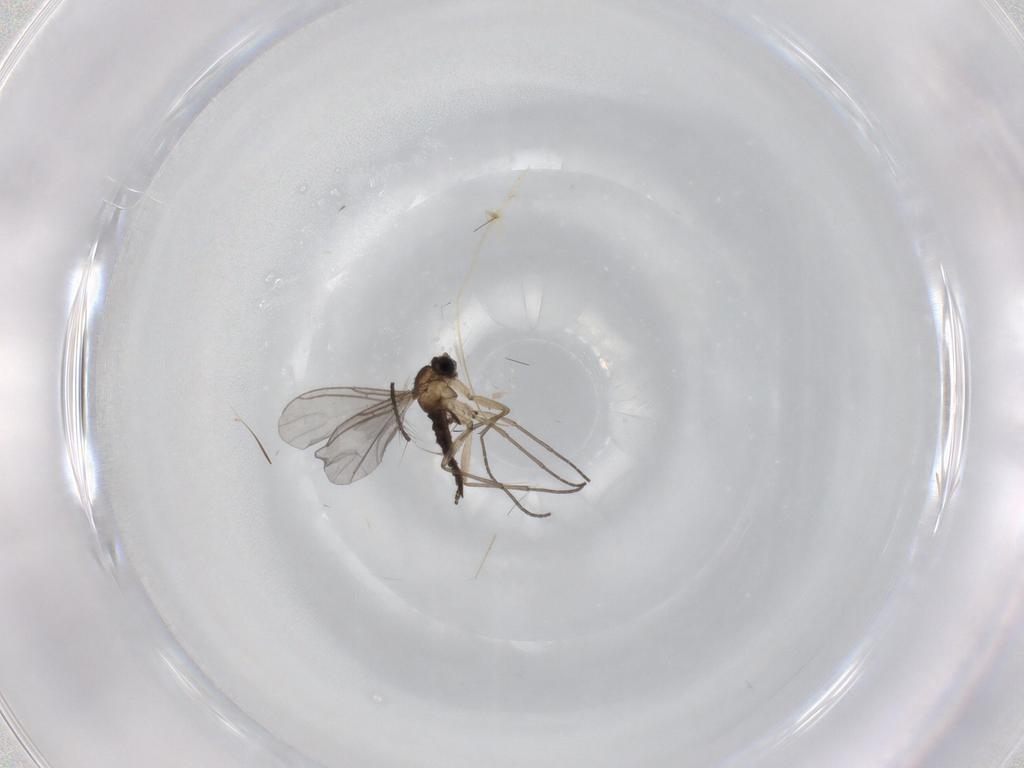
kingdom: Animalia
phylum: Arthropoda
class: Insecta
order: Diptera
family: Sciaridae
